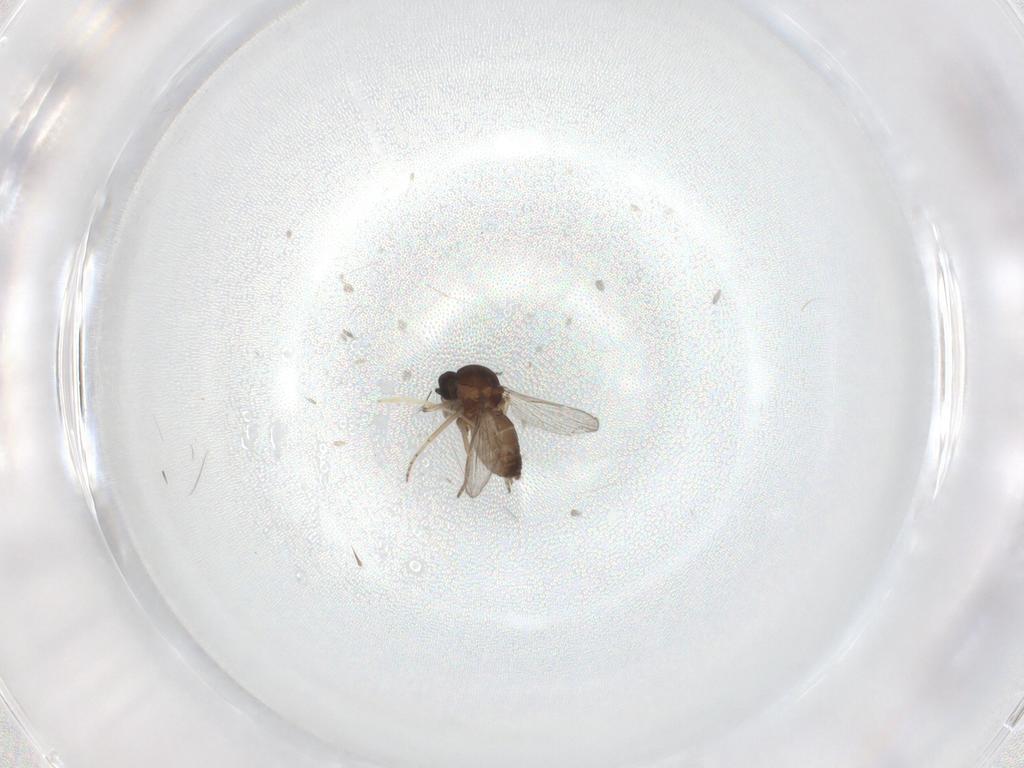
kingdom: Animalia
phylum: Arthropoda
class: Insecta
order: Diptera
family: Ceratopogonidae
